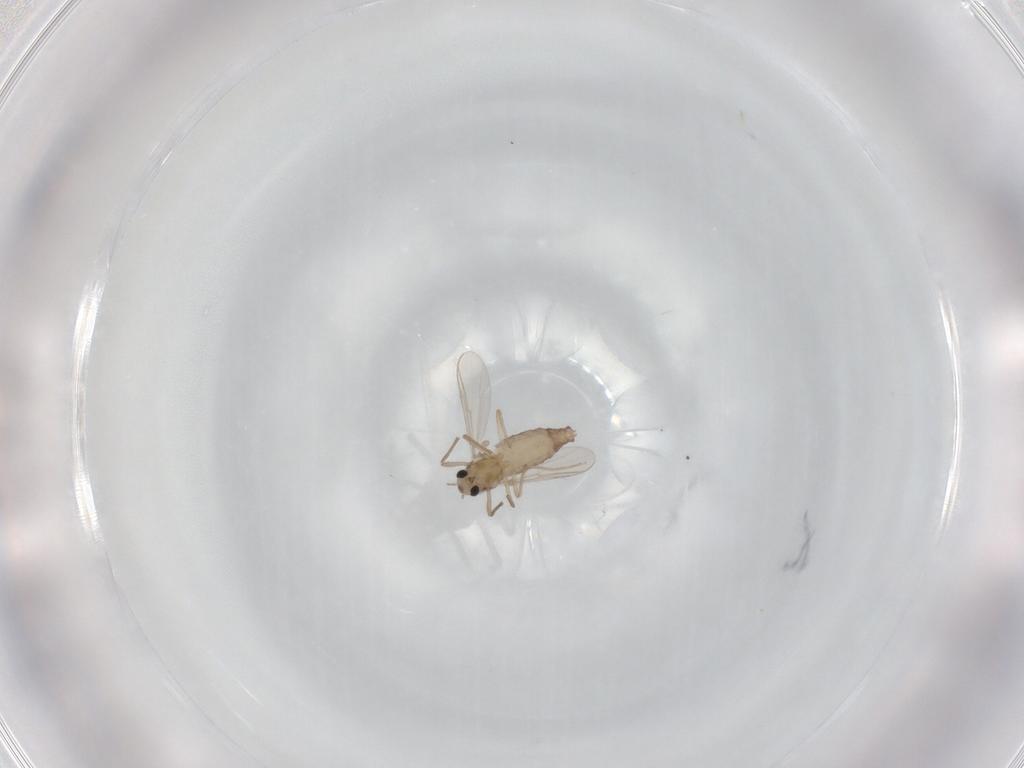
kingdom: Animalia
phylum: Arthropoda
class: Insecta
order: Diptera
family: Chironomidae
